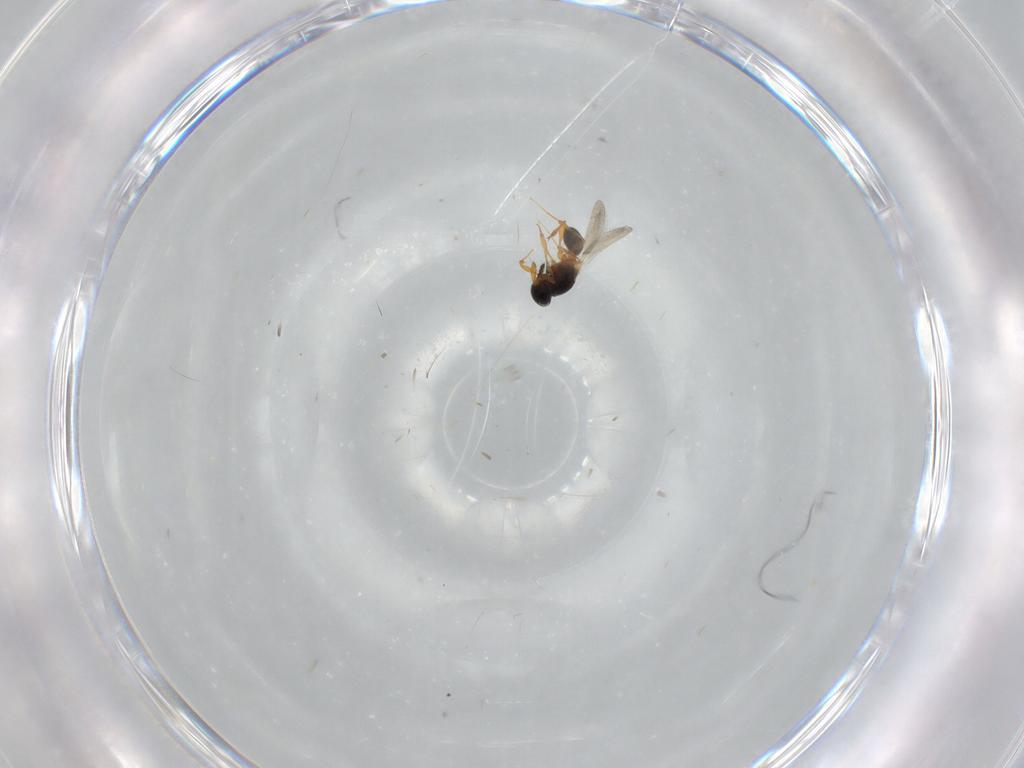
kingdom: Animalia
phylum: Arthropoda
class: Insecta
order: Hymenoptera
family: Platygastridae
